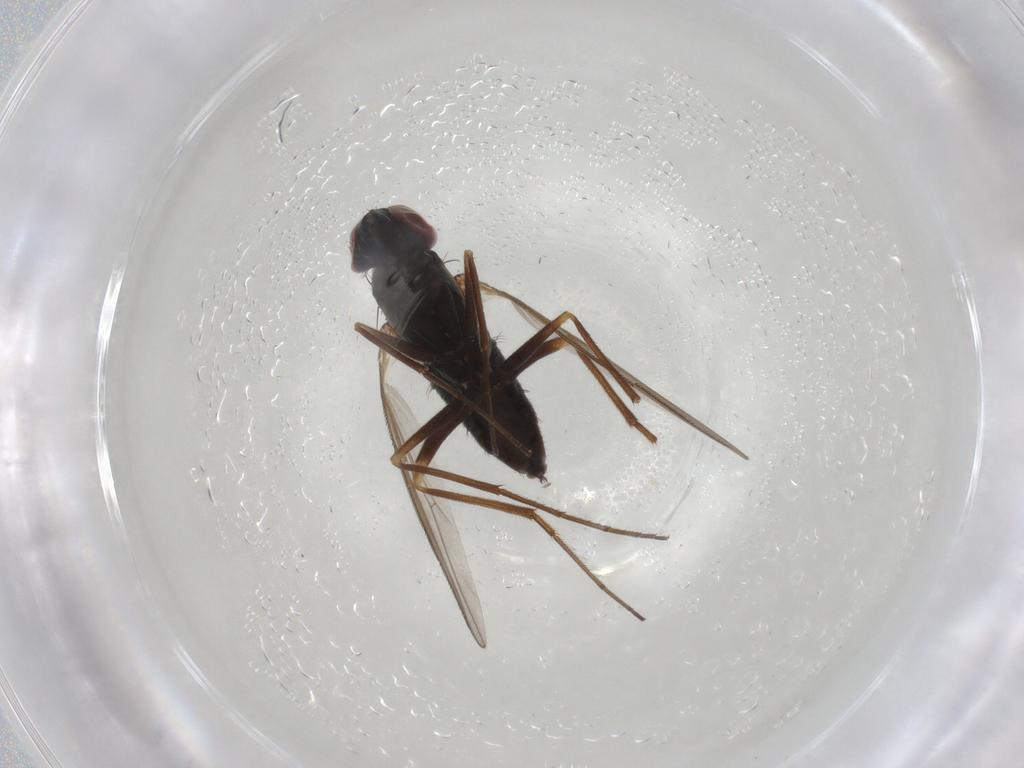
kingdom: Animalia
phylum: Arthropoda
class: Insecta
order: Diptera
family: Dolichopodidae
